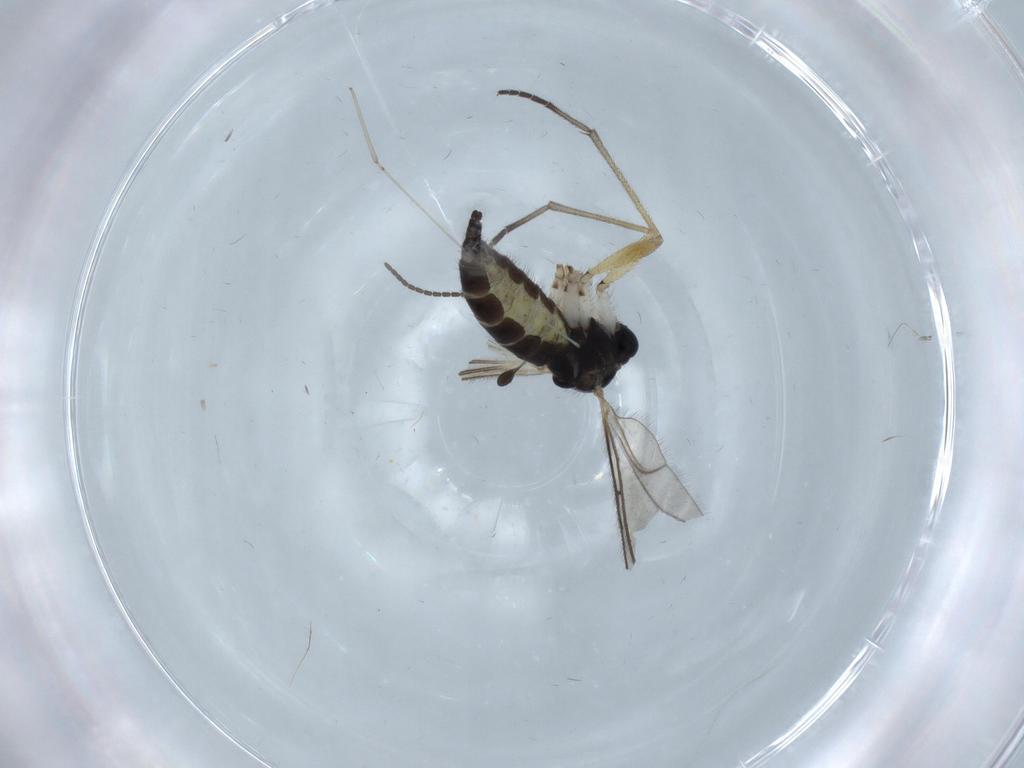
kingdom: Animalia
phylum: Arthropoda
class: Insecta
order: Diptera
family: Sciaridae
